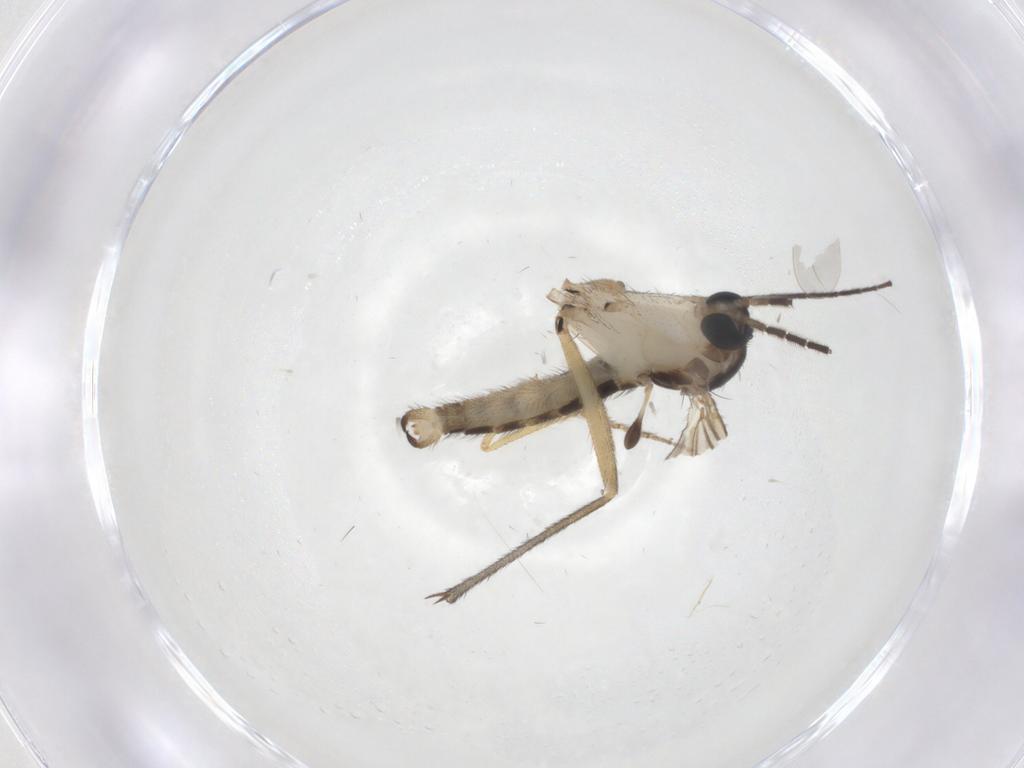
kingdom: Animalia
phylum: Arthropoda
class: Insecta
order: Diptera
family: Sciaridae
